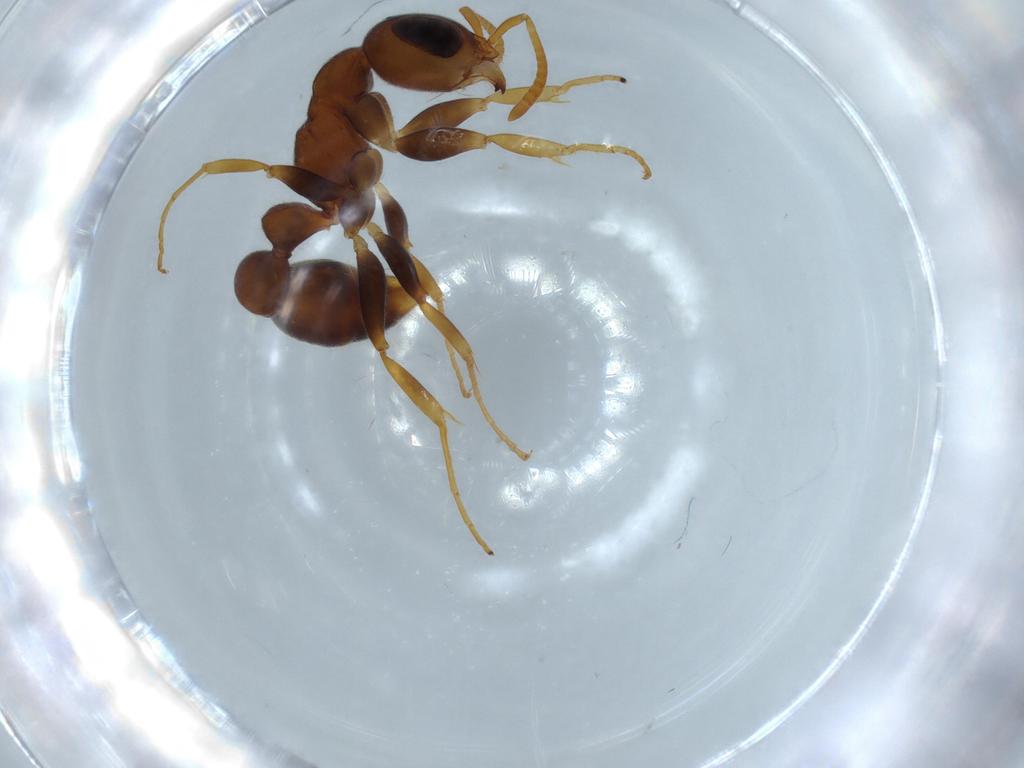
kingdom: Animalia
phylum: Arthropoda
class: Insecta
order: Hymenoptera
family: Formicidae
